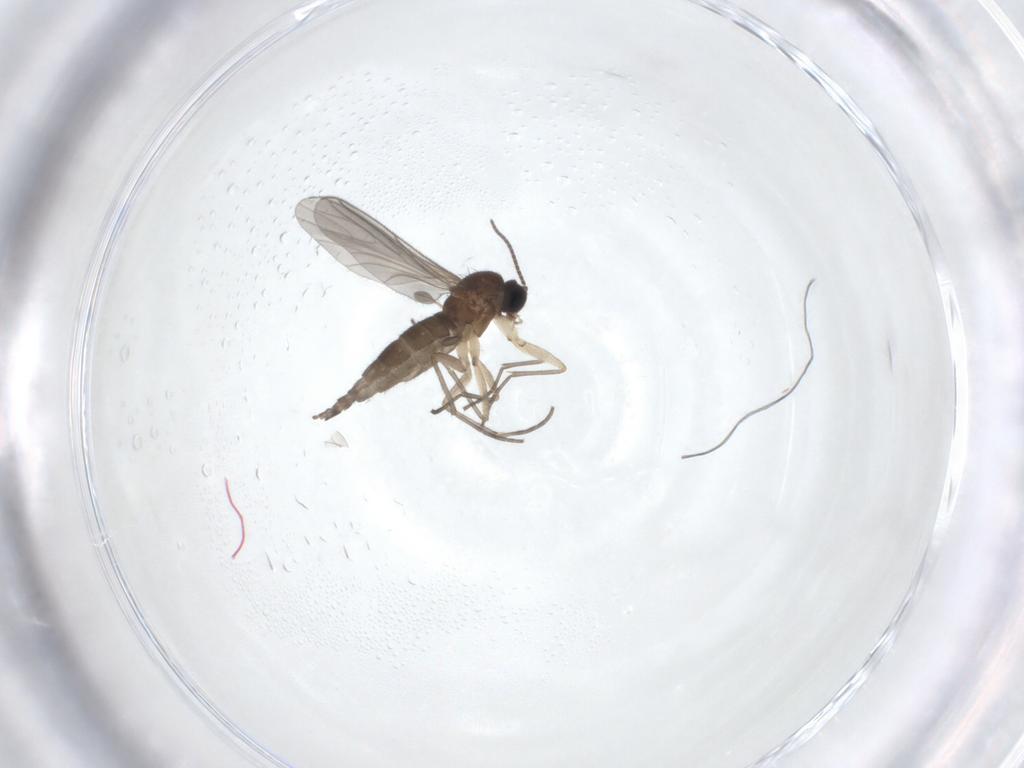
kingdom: Animalia
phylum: Arthropoda
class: Insecta
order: Diptera
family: Sciaridae
